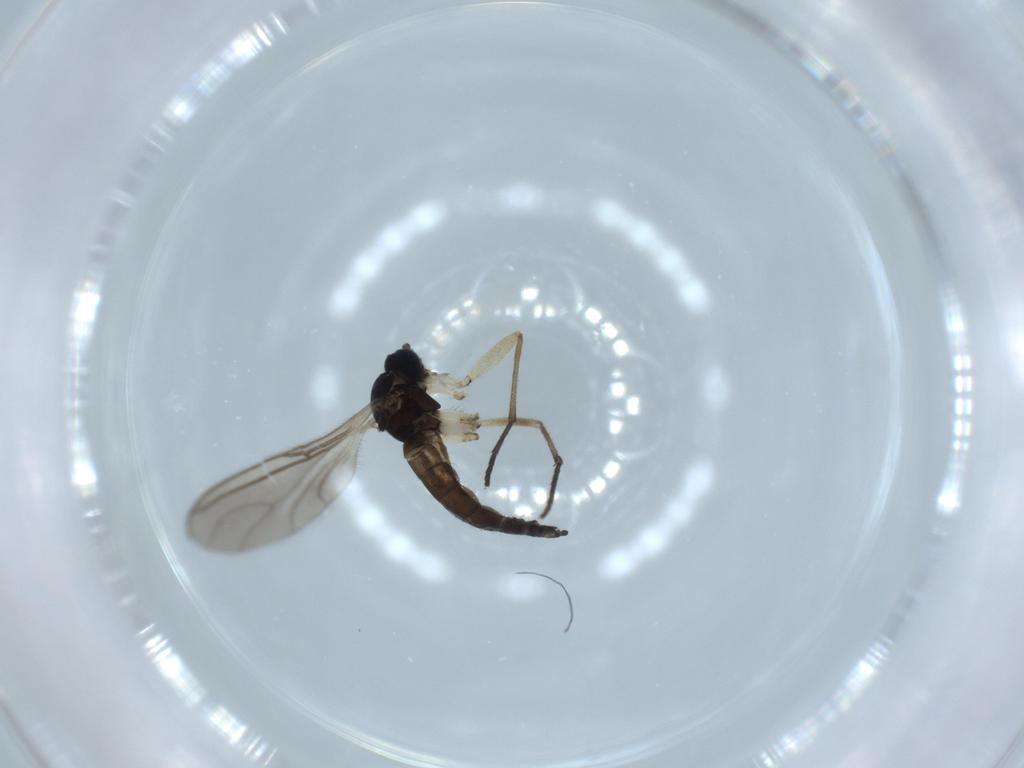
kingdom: Animalia
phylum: Arthropoda
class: Insecta
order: Diptera
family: Sciaridae
